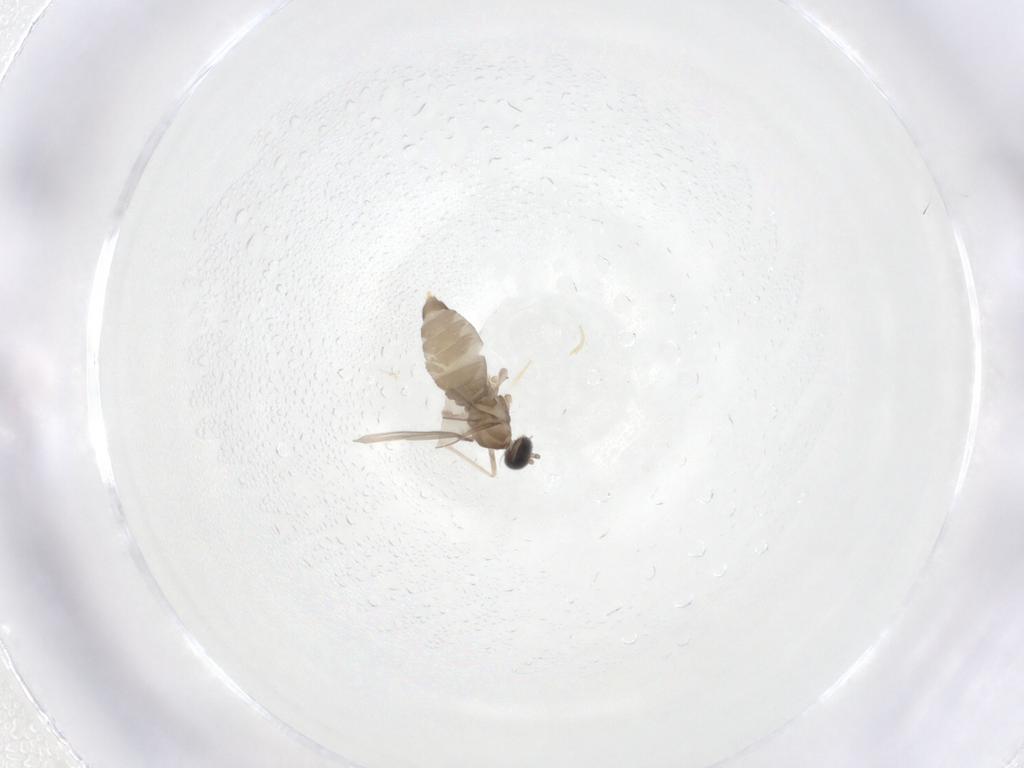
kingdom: Animalia
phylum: Arthropoda
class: Insecta
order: Diptera
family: Cecidomyiidae
